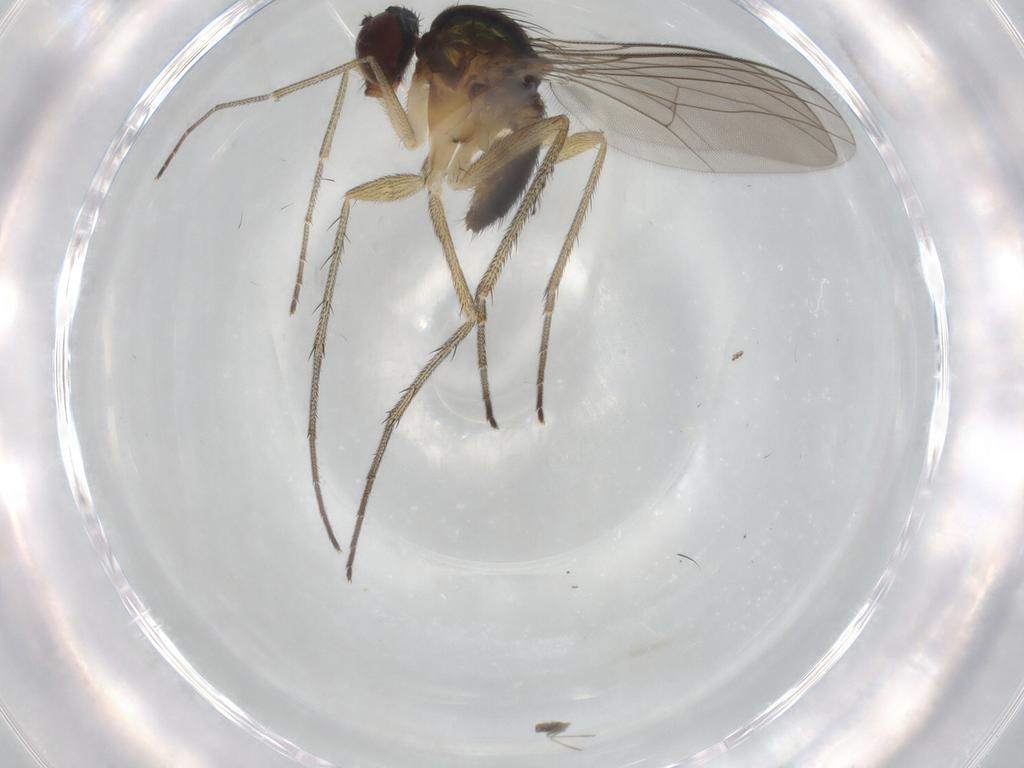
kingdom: Animalia
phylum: Arthropoda
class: Insecta
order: Diptera
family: Dolichopodidae
